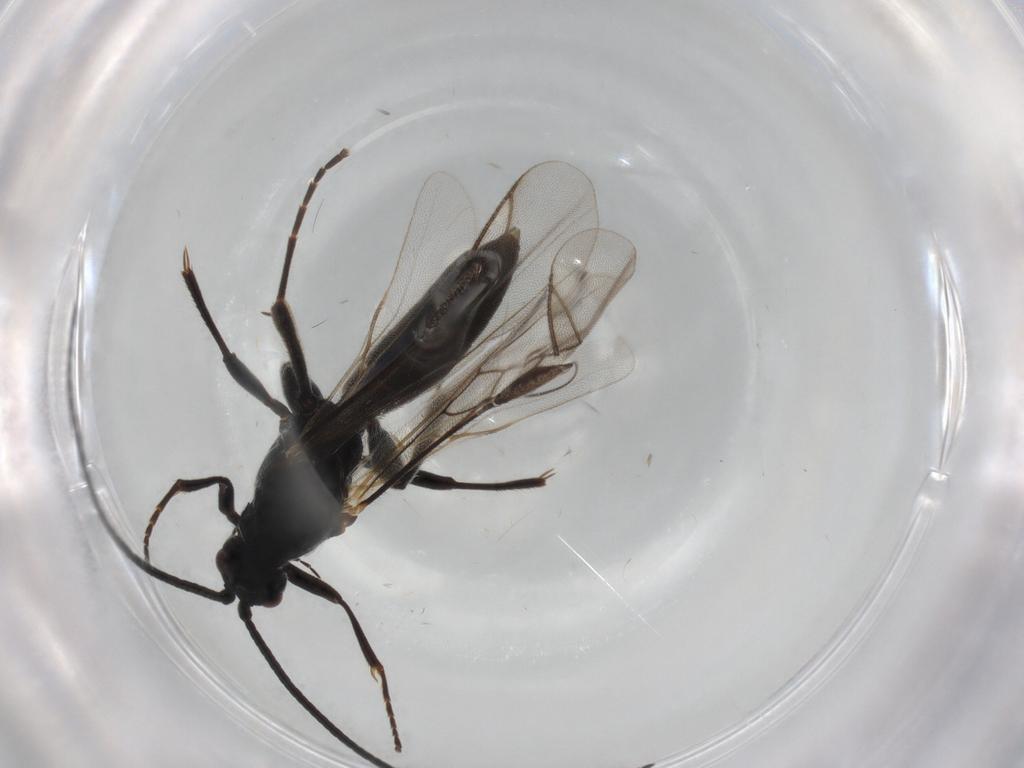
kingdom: Animalia
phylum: Arthropoda
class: Insecta
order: Hymenoptera
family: Braconidae
